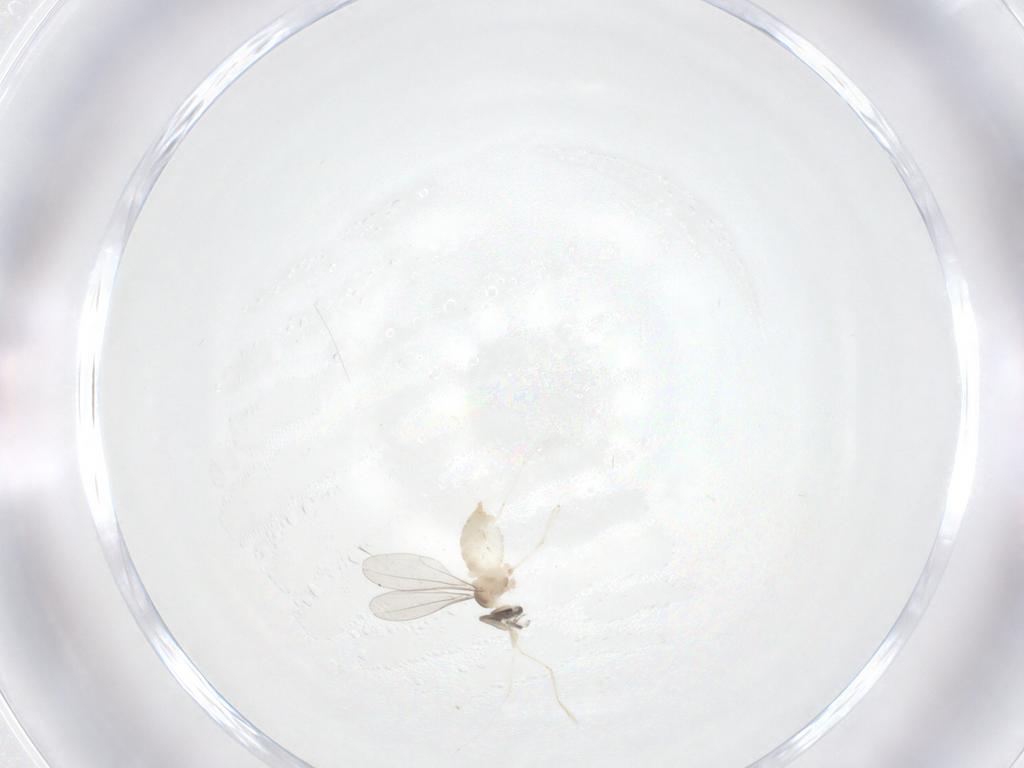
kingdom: Animalia
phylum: Arthropoda
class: Insecta
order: Diptera
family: Cecidomyiidae
